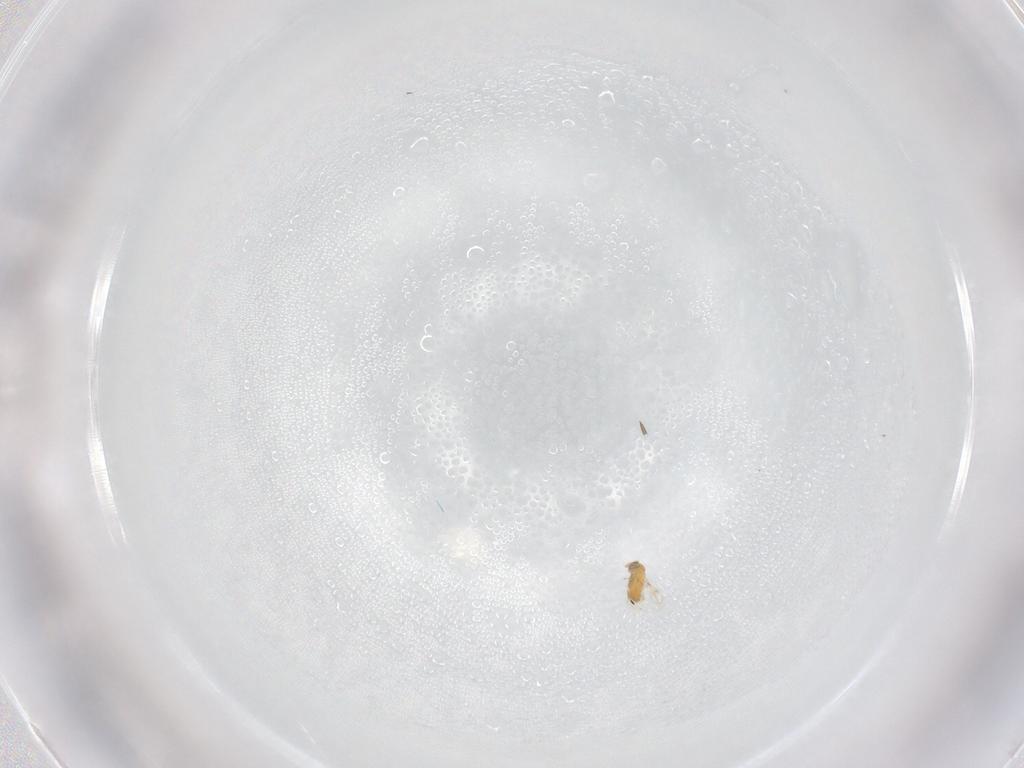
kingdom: Animalia
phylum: Arthropoda
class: Insecta
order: Hymenoptera
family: Trichogrammatidae
